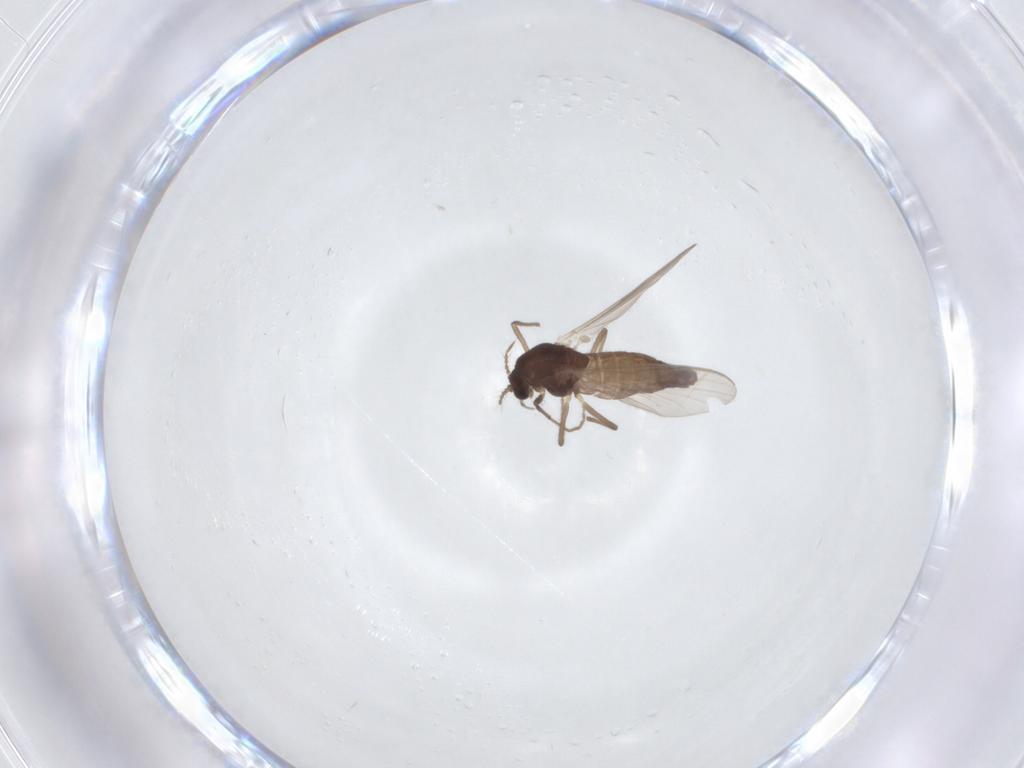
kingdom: Animalia
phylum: Arthropoda
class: Insecta
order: Diptera
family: Chironomidae
